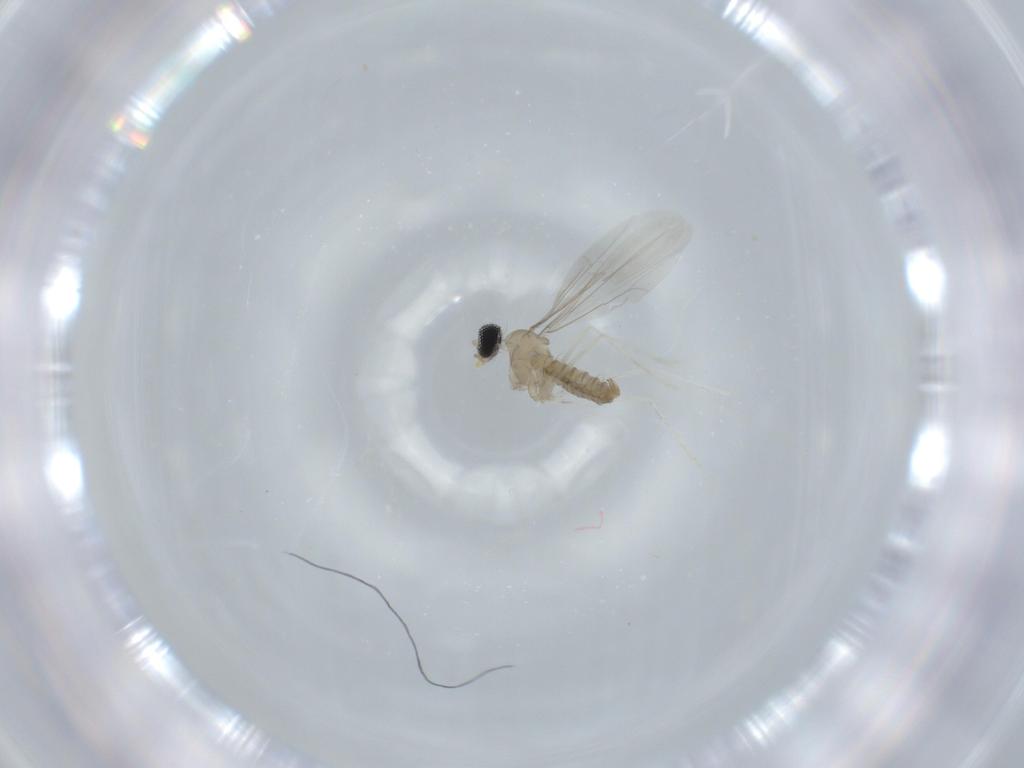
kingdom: Animalia
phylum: Arthropoda
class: Insecta
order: Diptera
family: Cecidomyiidae
